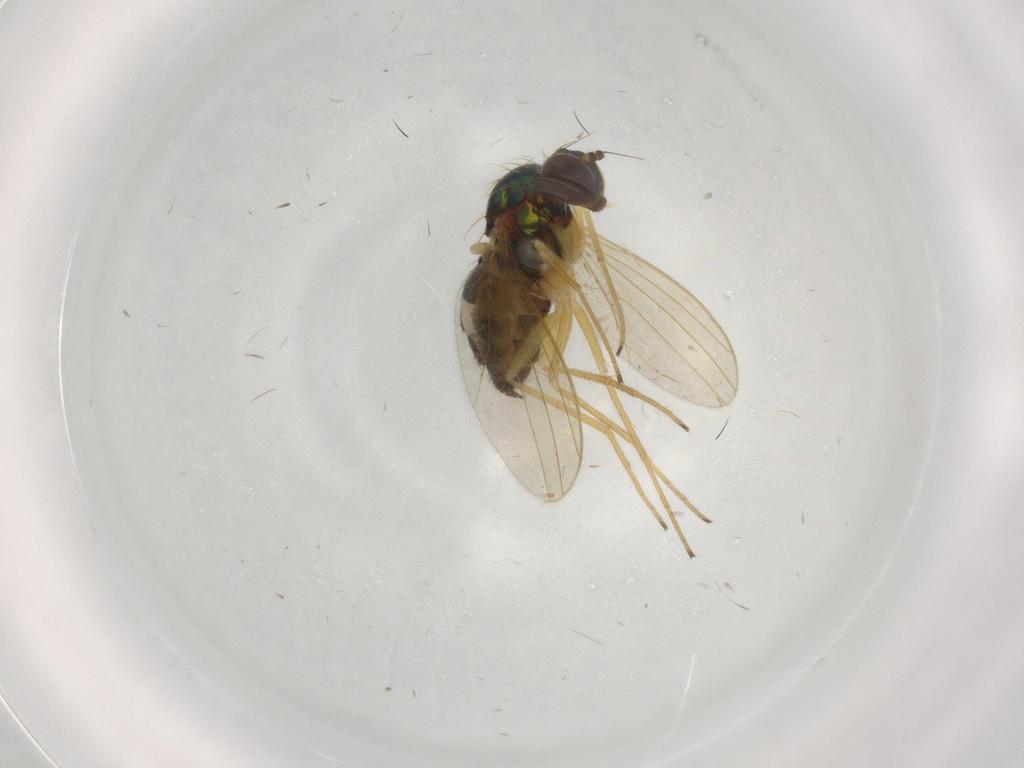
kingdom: Animalia
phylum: Arthropoda
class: Insecta
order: Diptera
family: Dolichopodidae
